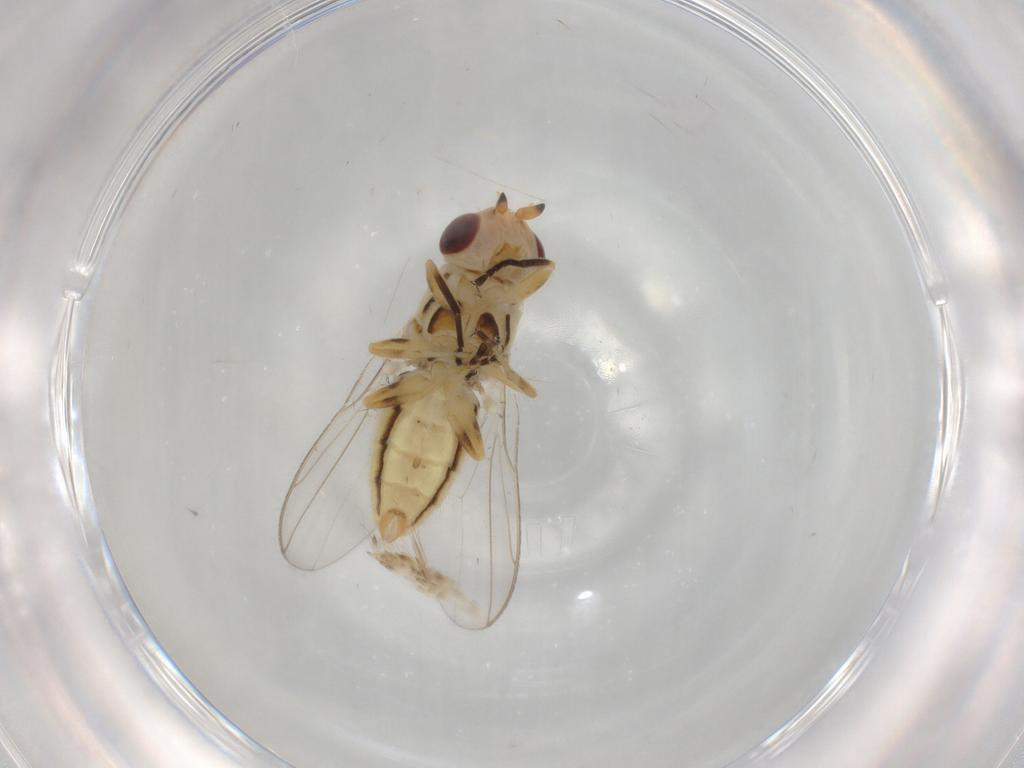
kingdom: Animalia
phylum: Arthropoda
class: Insecta
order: Diptera
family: Chloropidae
